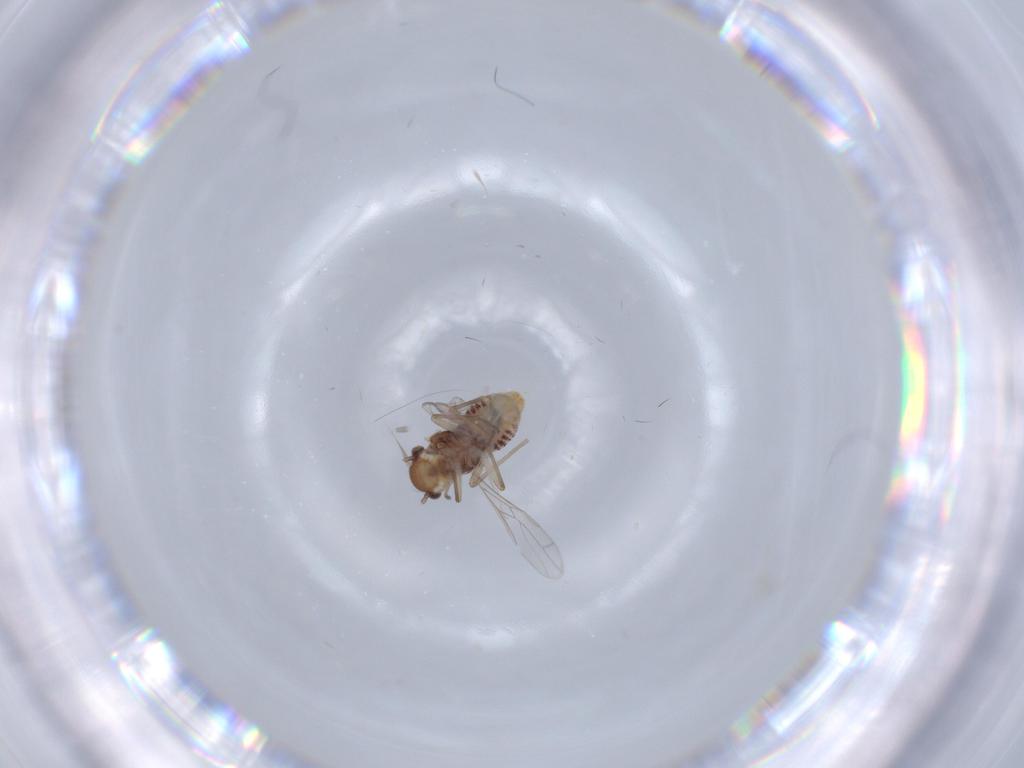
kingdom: Animalia
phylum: Arthropoda
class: Insecta
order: Psocodea
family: Lachesillidae
